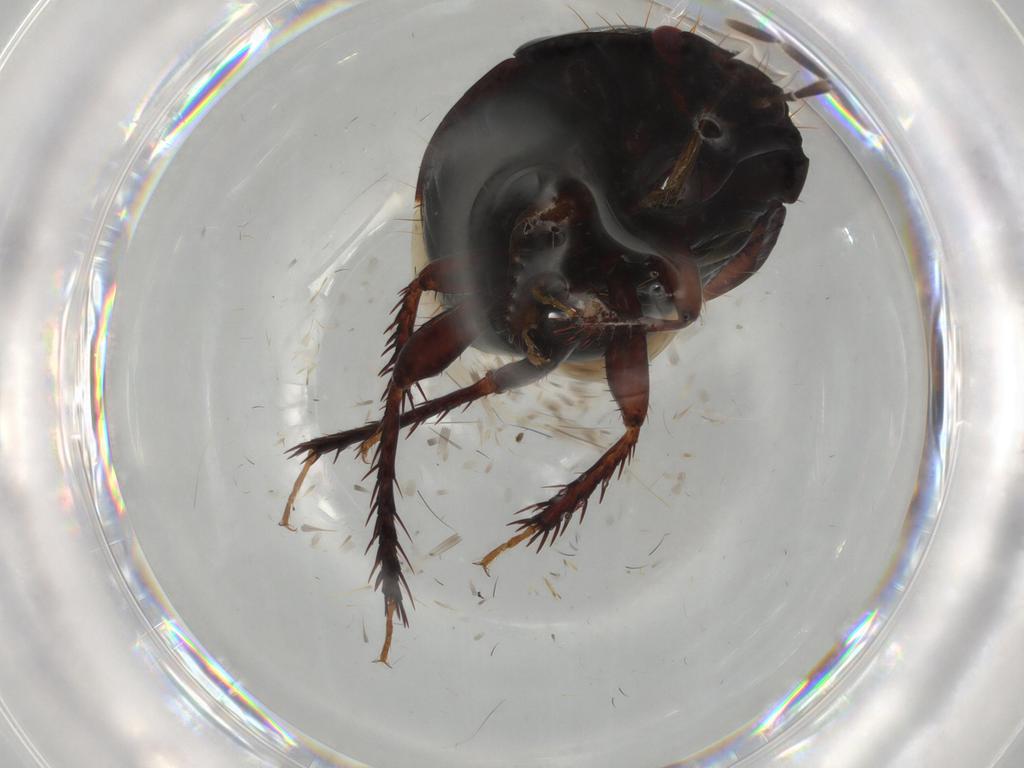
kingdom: Animalia
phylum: Arthropoda
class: Insecta
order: Hemiptera
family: Cydnidae
